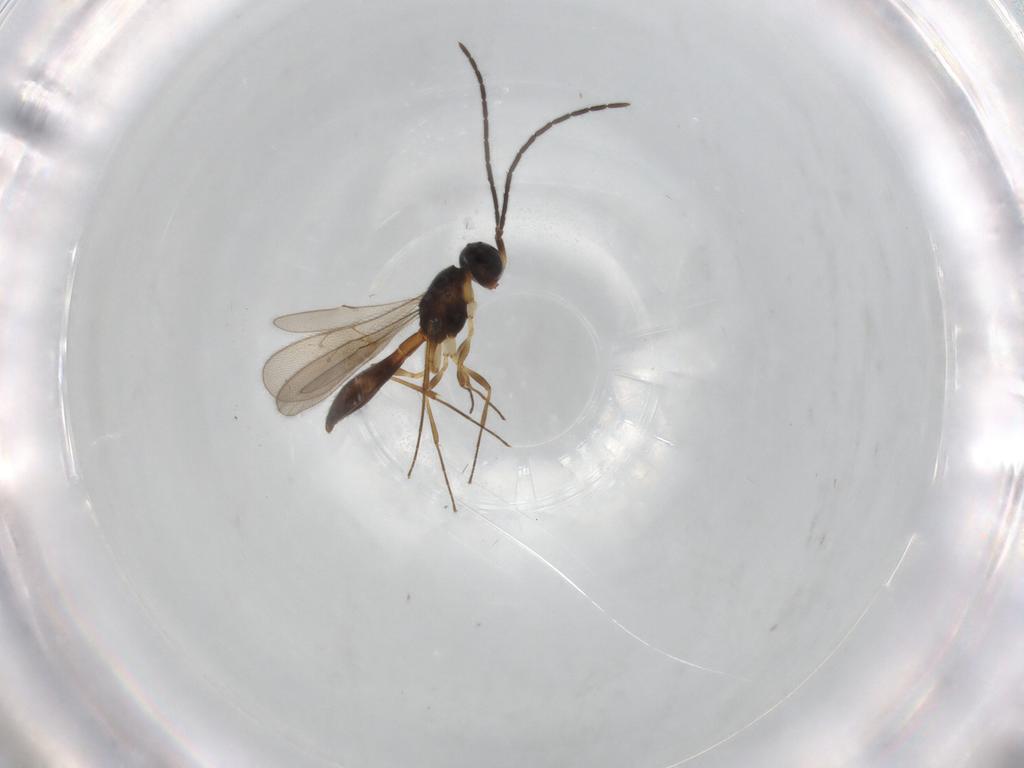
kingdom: Animalia
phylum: Arthropoda
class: Insecta
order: Hymenoptera
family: Scelionidae
